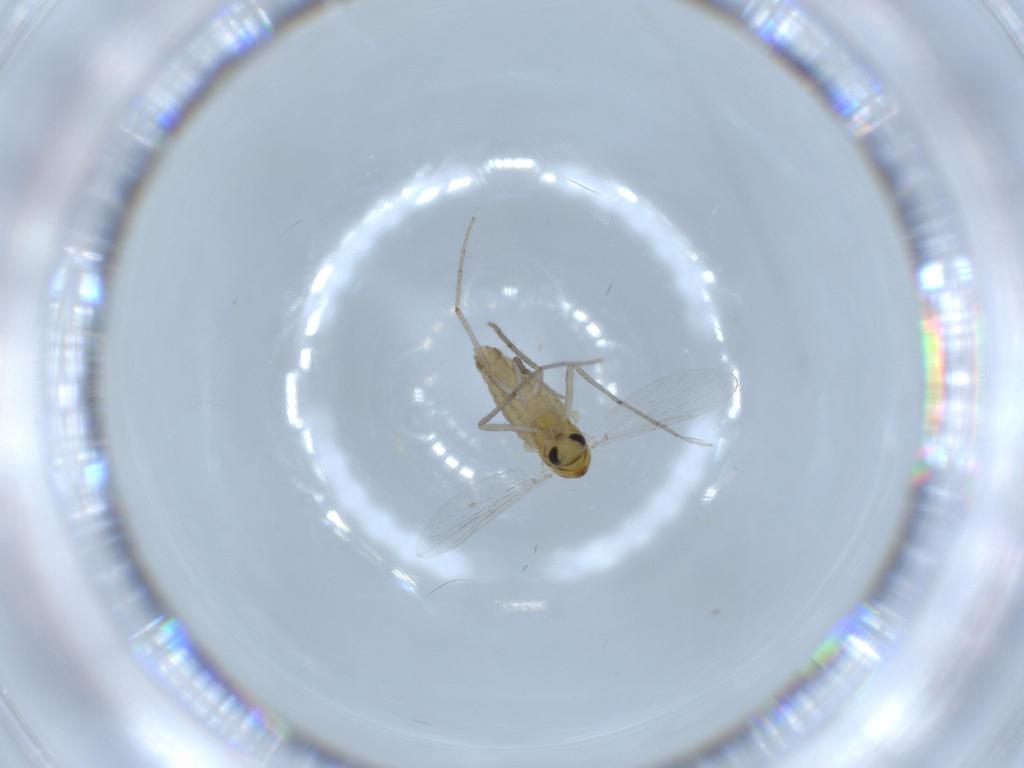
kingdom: Animalia
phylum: Arthropoda
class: Insecta
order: Diptera
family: Chironomidae
